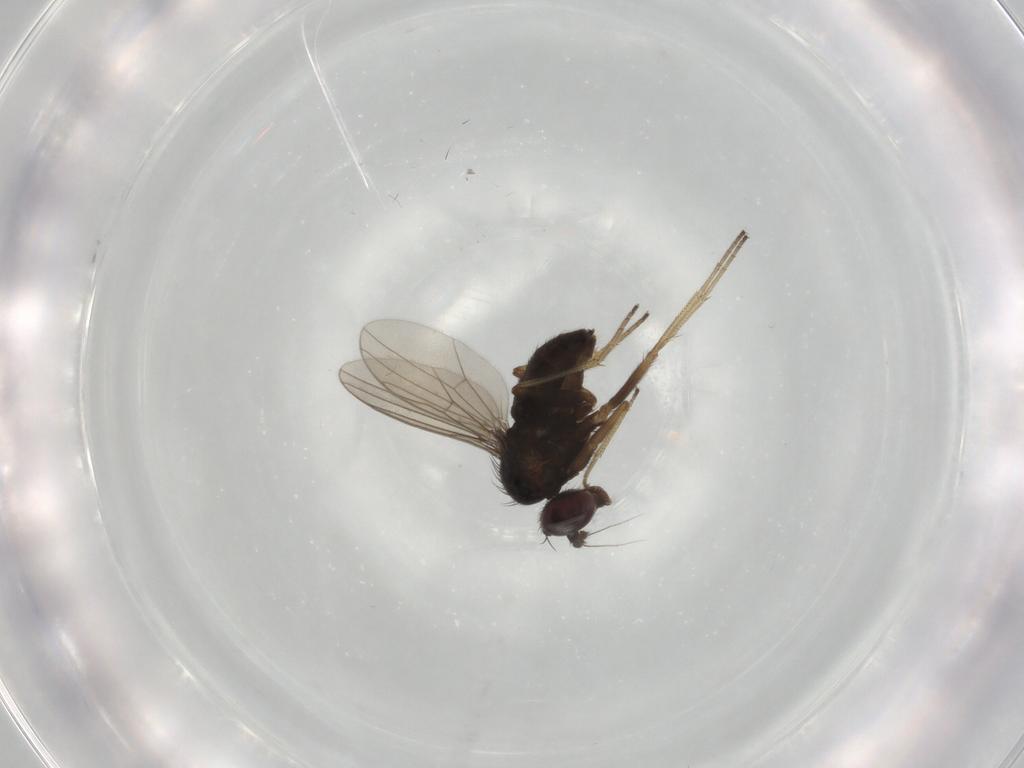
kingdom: Animalia
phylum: Arthropoda
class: Insecta
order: Diptera
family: Dolichopodidae
